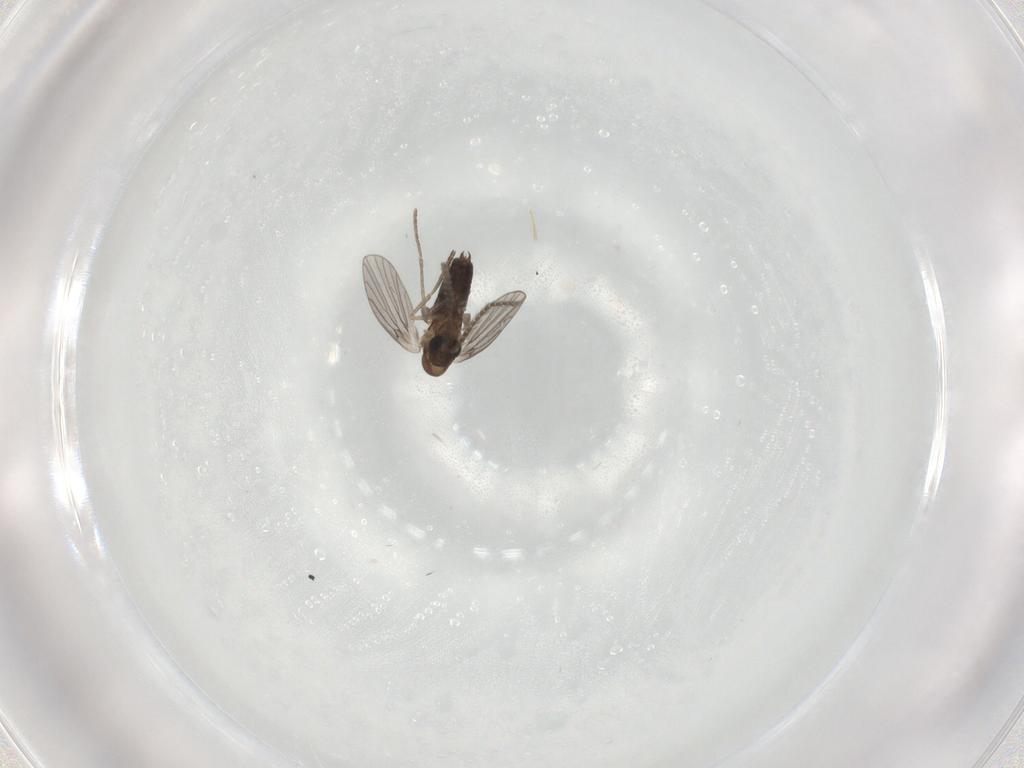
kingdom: Animalia
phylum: Arthropoda
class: Insecta
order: Diptera
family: Phoridae
